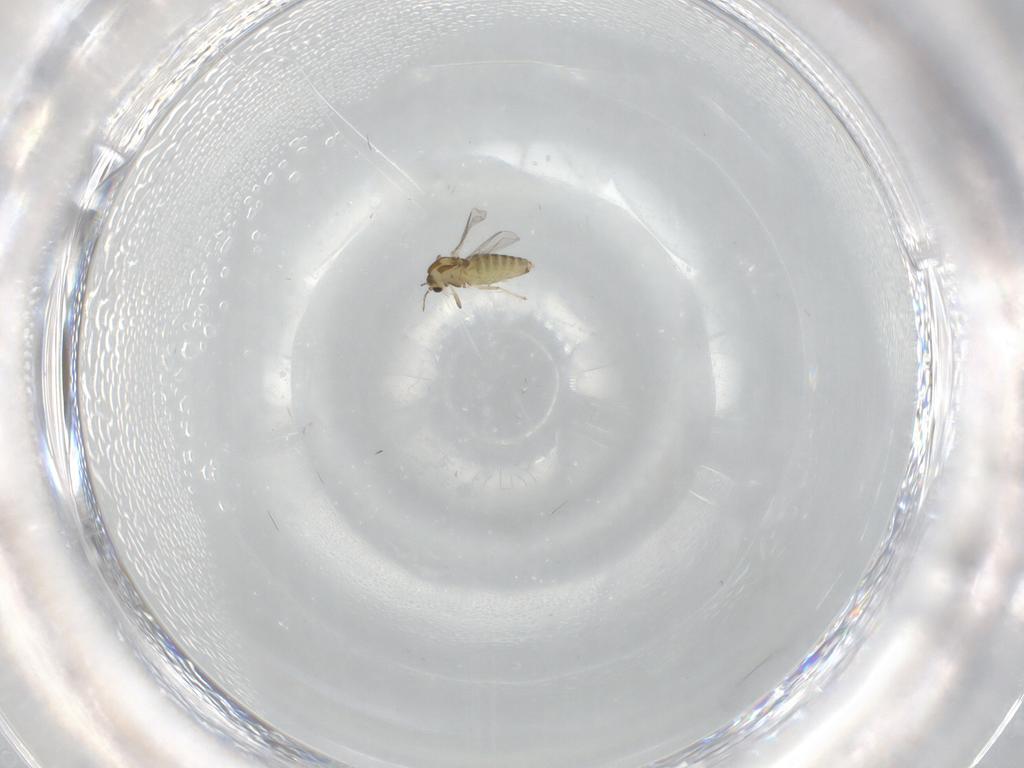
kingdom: Animalia
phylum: Arthropoda
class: Insecta
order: Diptera
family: Chironomidae
